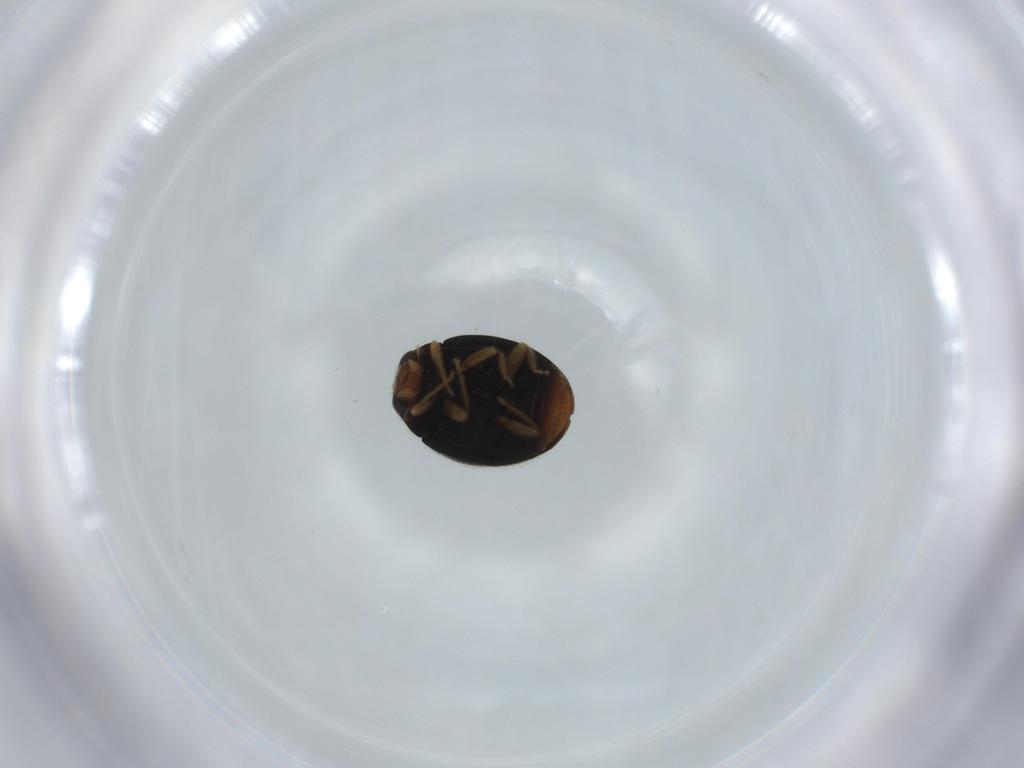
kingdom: Animalia
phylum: Arthropoda
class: Insecta
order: Coleoptera
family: Coccinellidae
